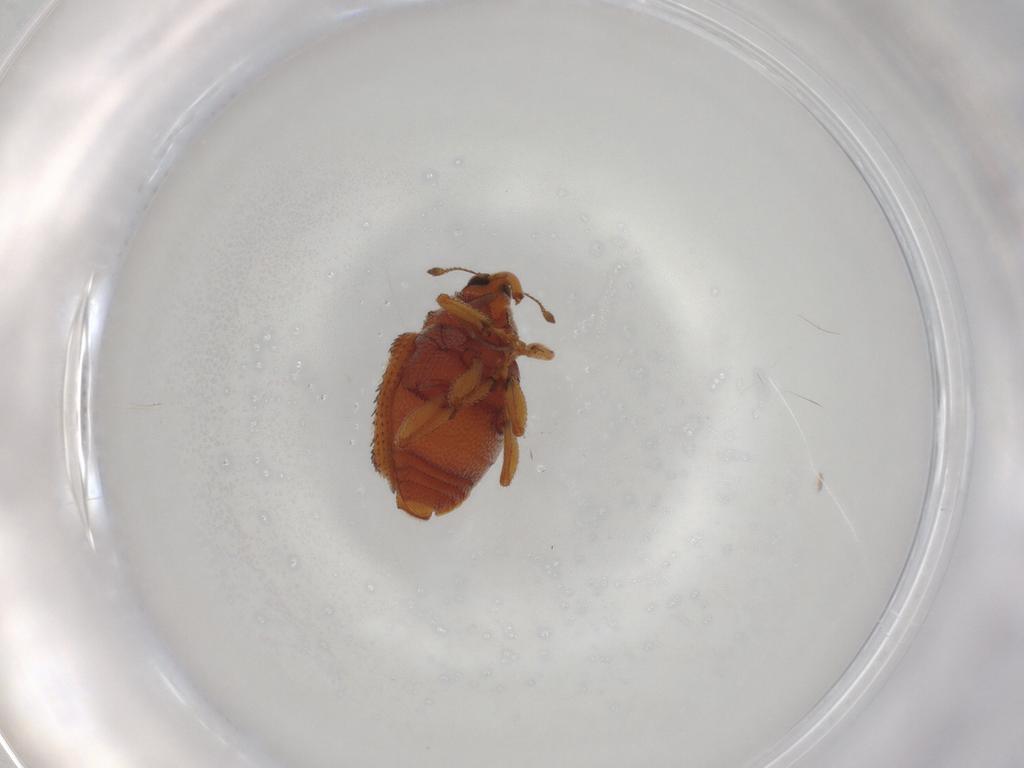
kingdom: Animalia
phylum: Arthropoda
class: Insecta
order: Coleoptera
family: Curculionidae
